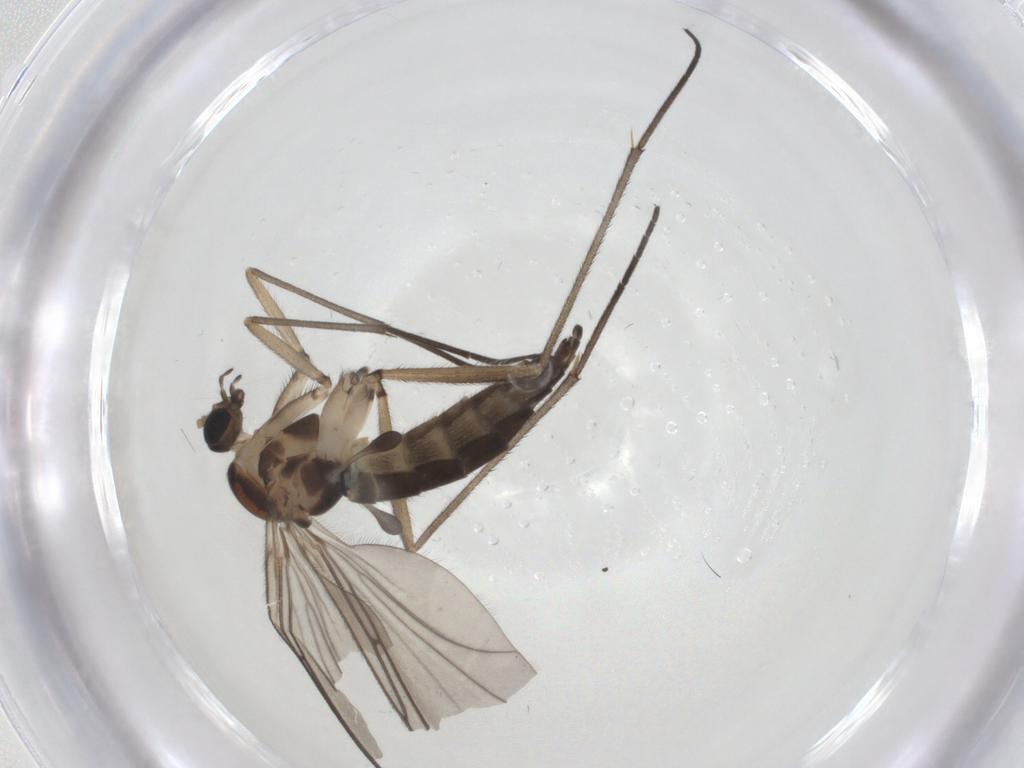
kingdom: Animalia
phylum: Arthropoda
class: Insecta
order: Diptera
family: Sciaridae
